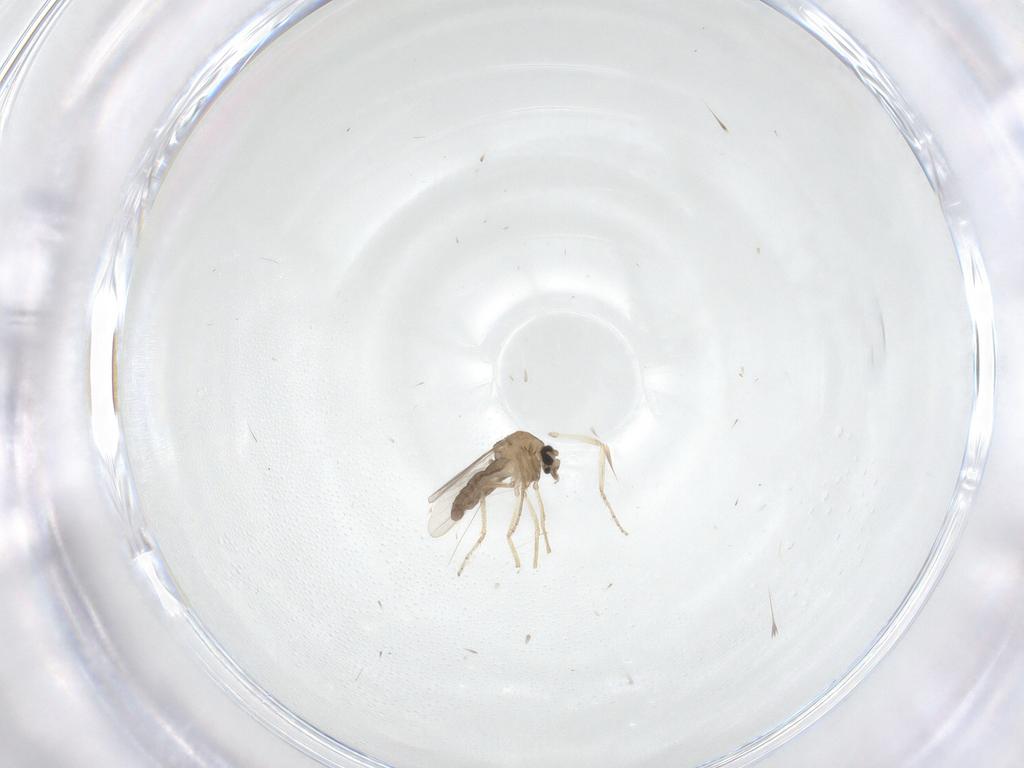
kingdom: Animalia
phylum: Arthropoda
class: Insecta
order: Diptera
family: Ceratopogonidae
